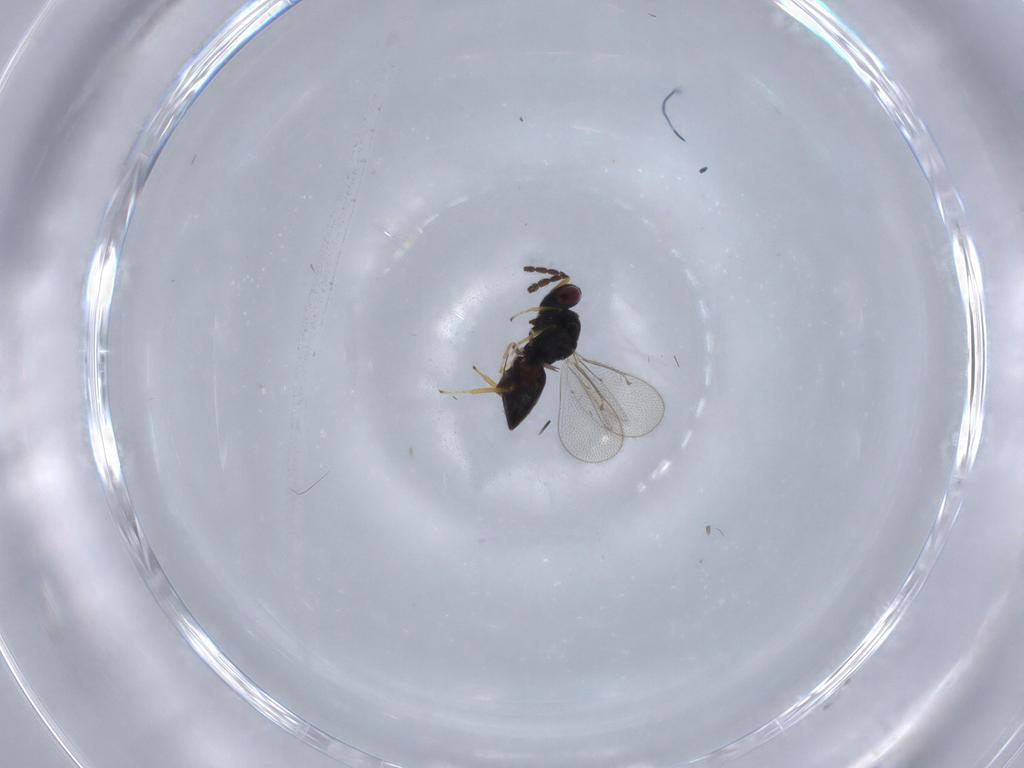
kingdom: Animalia
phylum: Arthropoda
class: Insecta
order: Hymenoptera
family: Eulophidae
